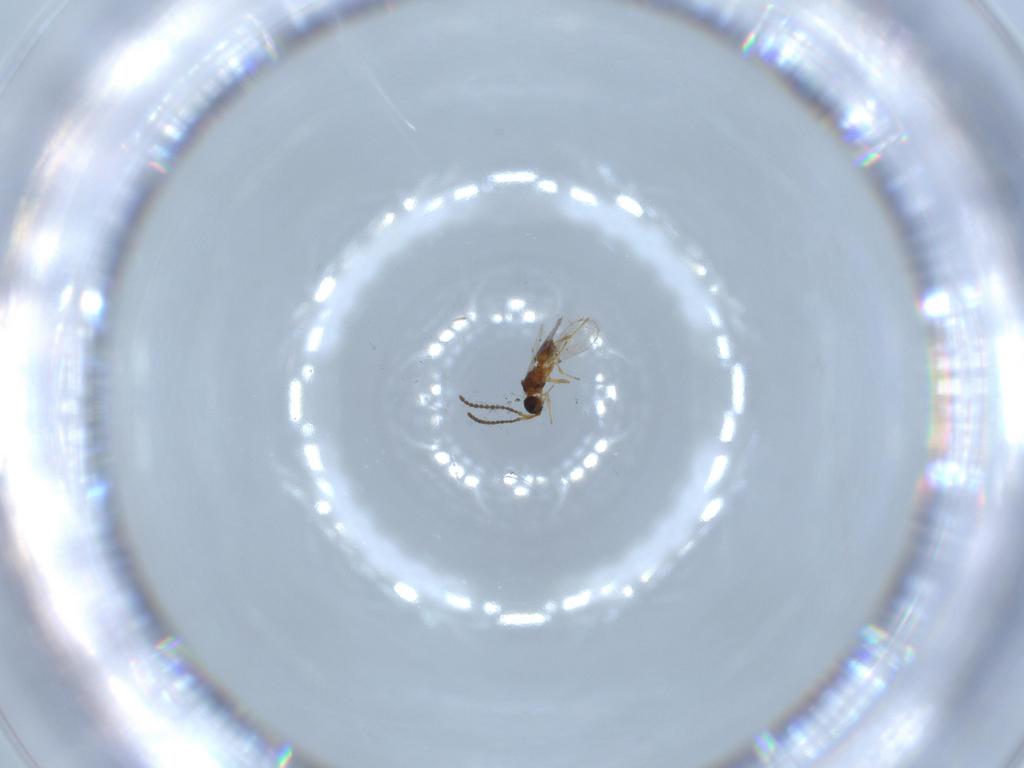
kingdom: Animalia
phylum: Arthropoda
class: Insecta
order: Hymenoptera
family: Diapriidae
